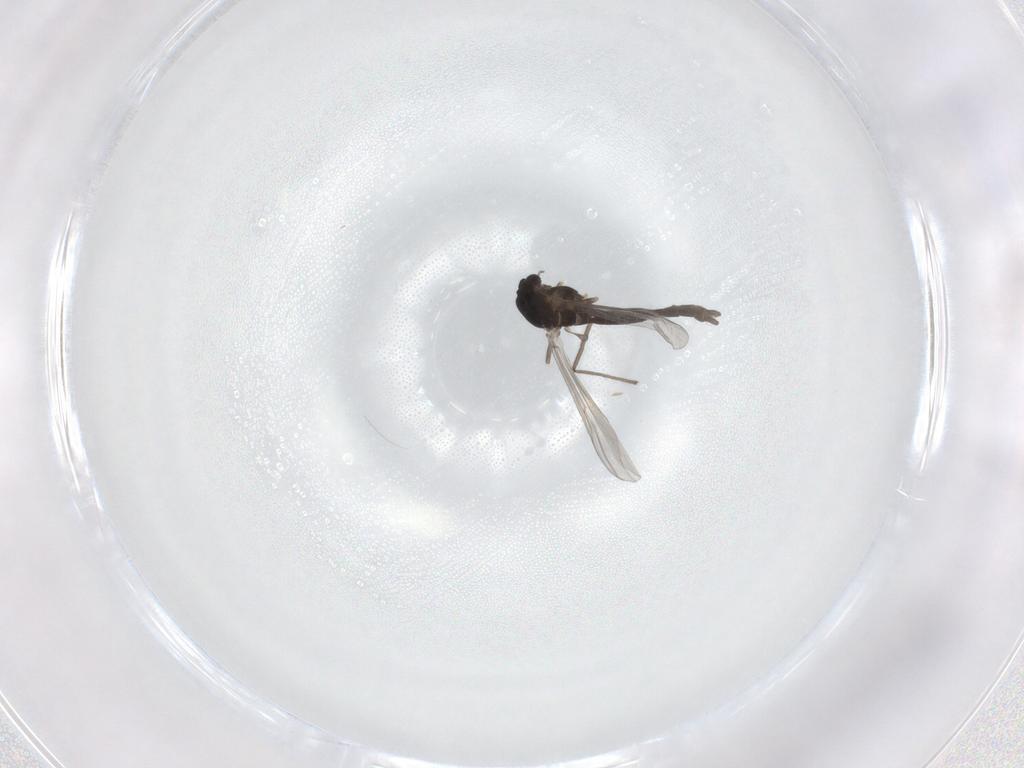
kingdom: Animalia
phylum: Arthropoda
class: Insecta
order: Diptera
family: Chironomidae
